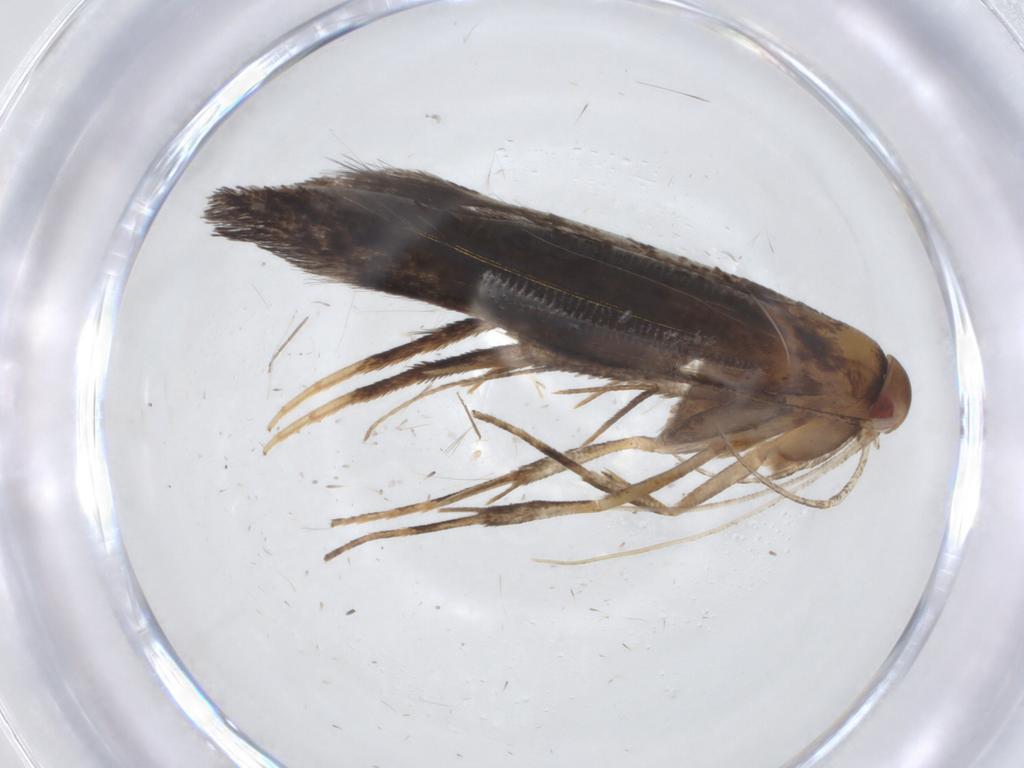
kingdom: Animalia
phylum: Arthropoda
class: Insecta
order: Lepidoptera
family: Cosmopterigidae
